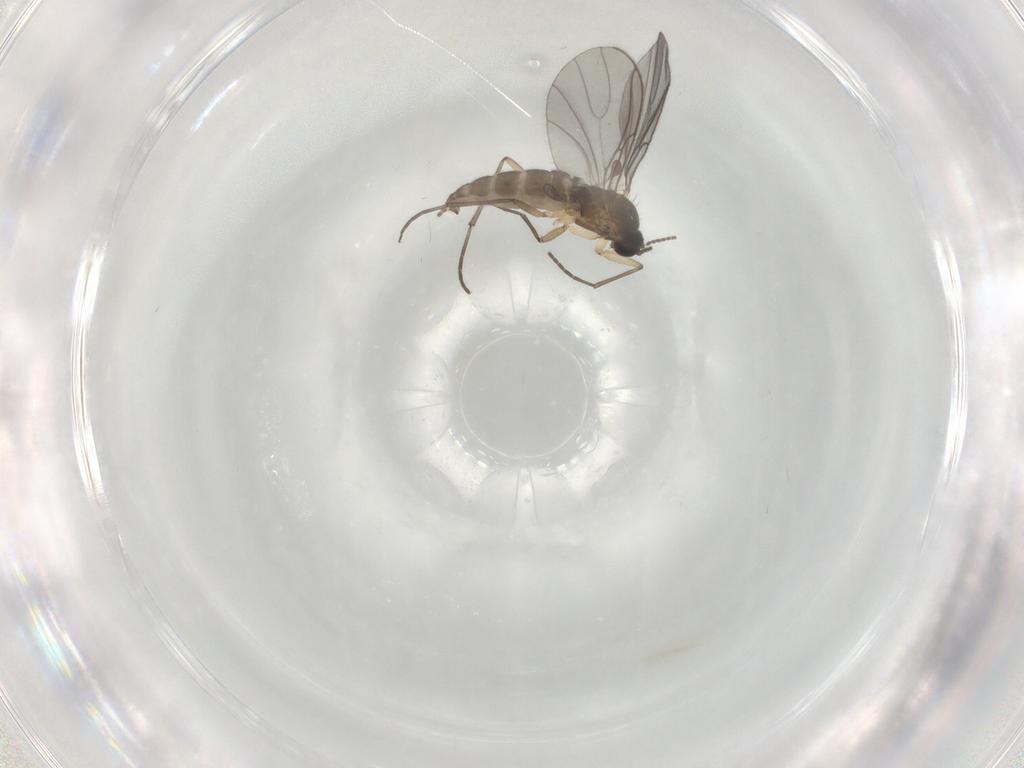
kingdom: Animalia
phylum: Arthropoda
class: Insecta
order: Diptera
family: Sciaridae
